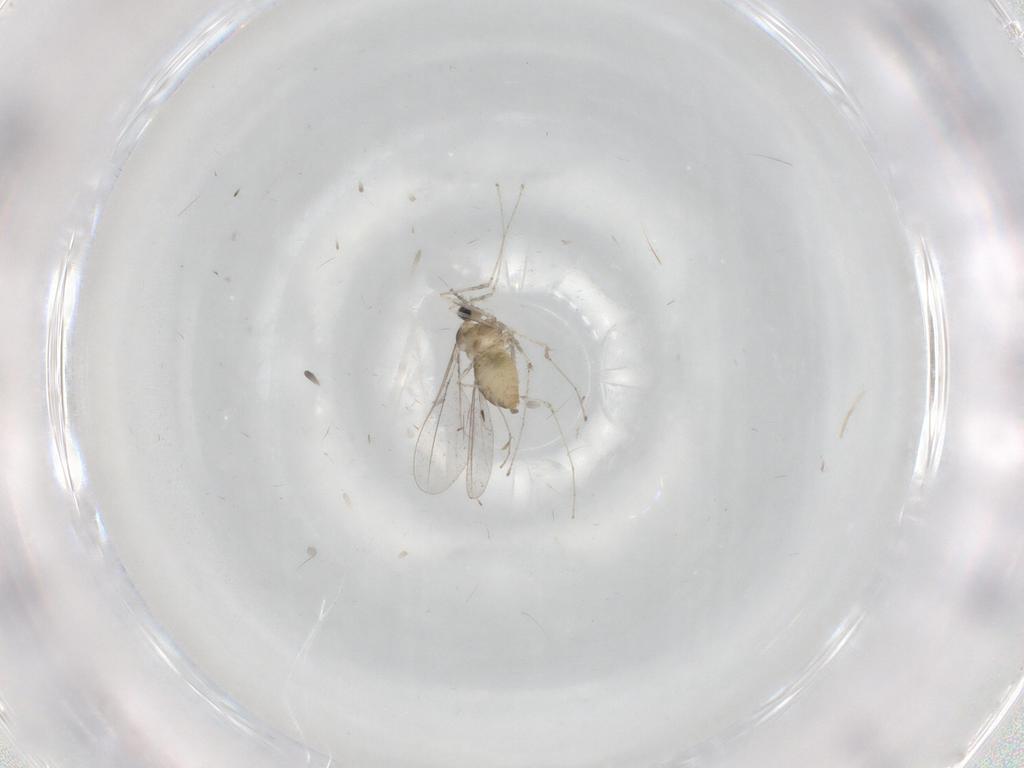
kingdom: Animalia
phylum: Arthropoda
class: Insecta
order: Diptera
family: Cecidomyiidae
